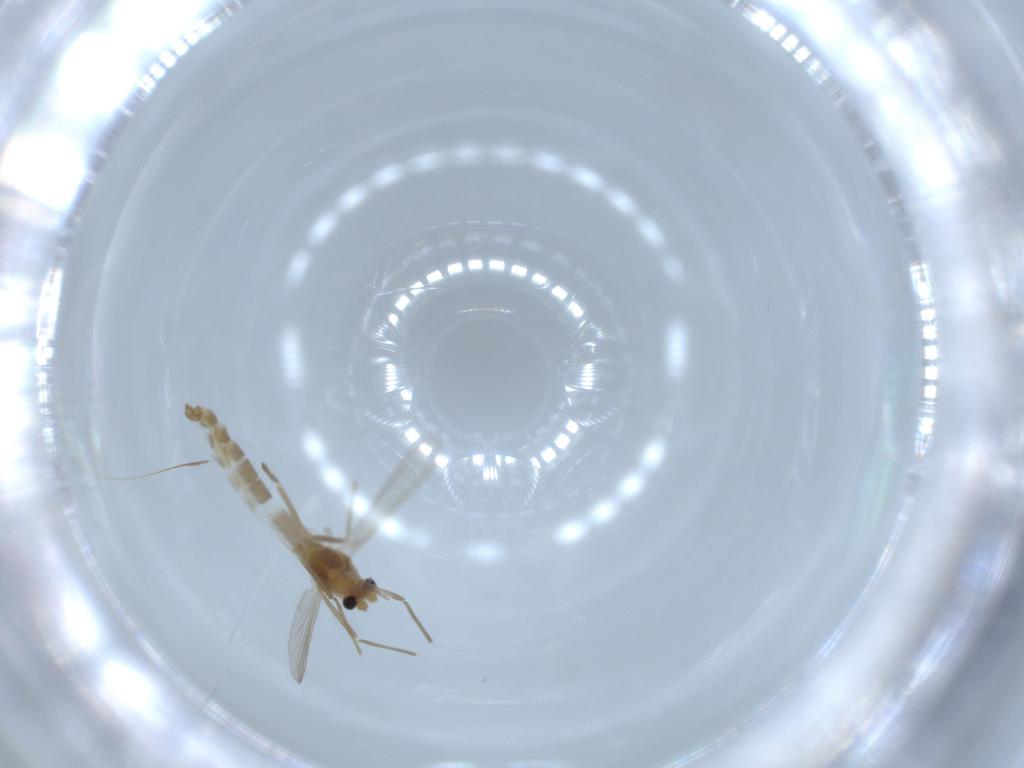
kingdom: Animalia
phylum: Arthropoda
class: Insecta
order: Diptera
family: Chironomidae
